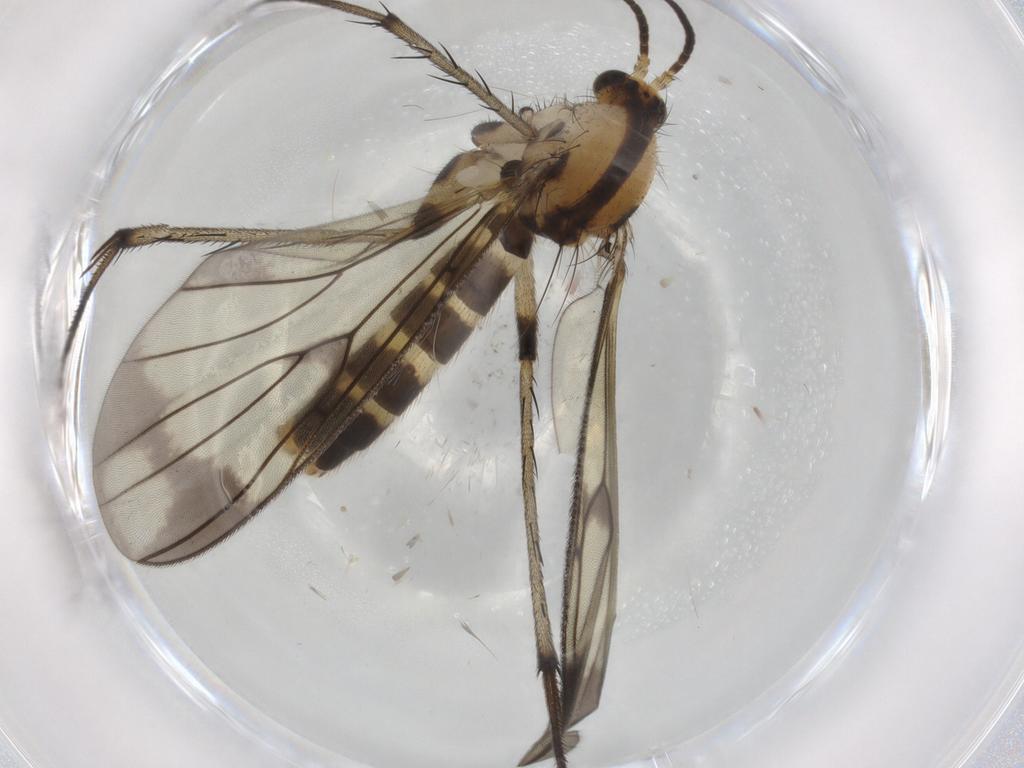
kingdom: Animalia
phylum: Arthropoda
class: Insecta
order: Diptera
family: Mycetophilidae
